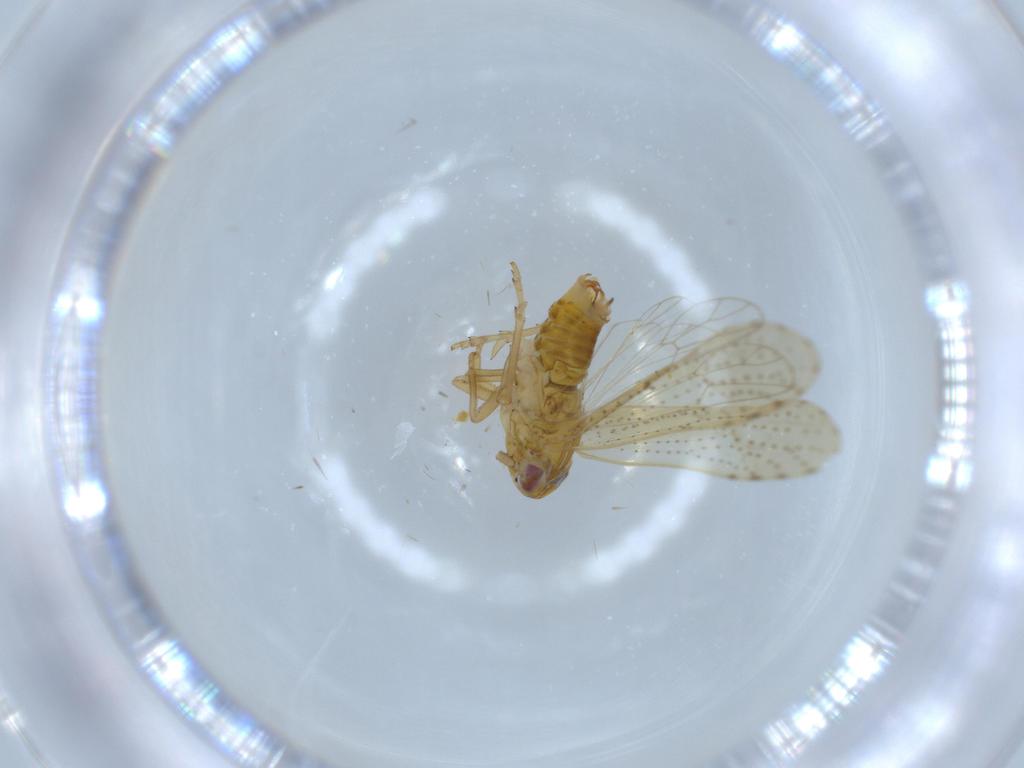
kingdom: Animalia
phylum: Arthropoda
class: Insecta
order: Hemiptera
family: Delphacidae
